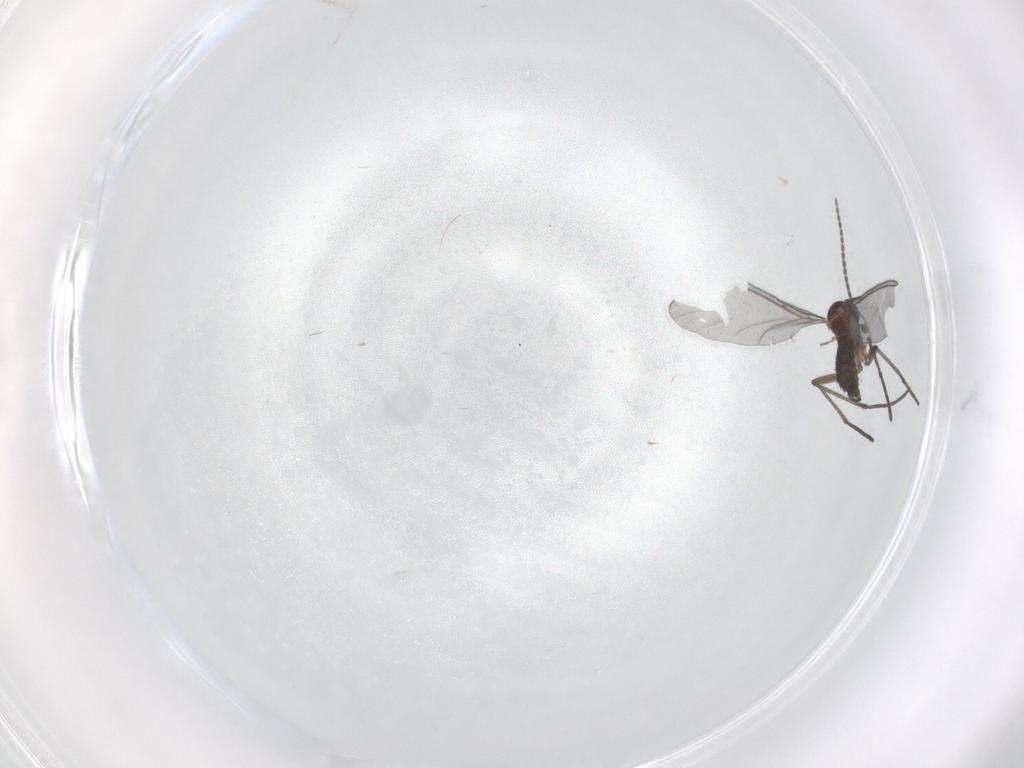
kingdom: Animalia
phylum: Arthropoda
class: Insecta
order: Diptera
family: Cecidomyiidae
